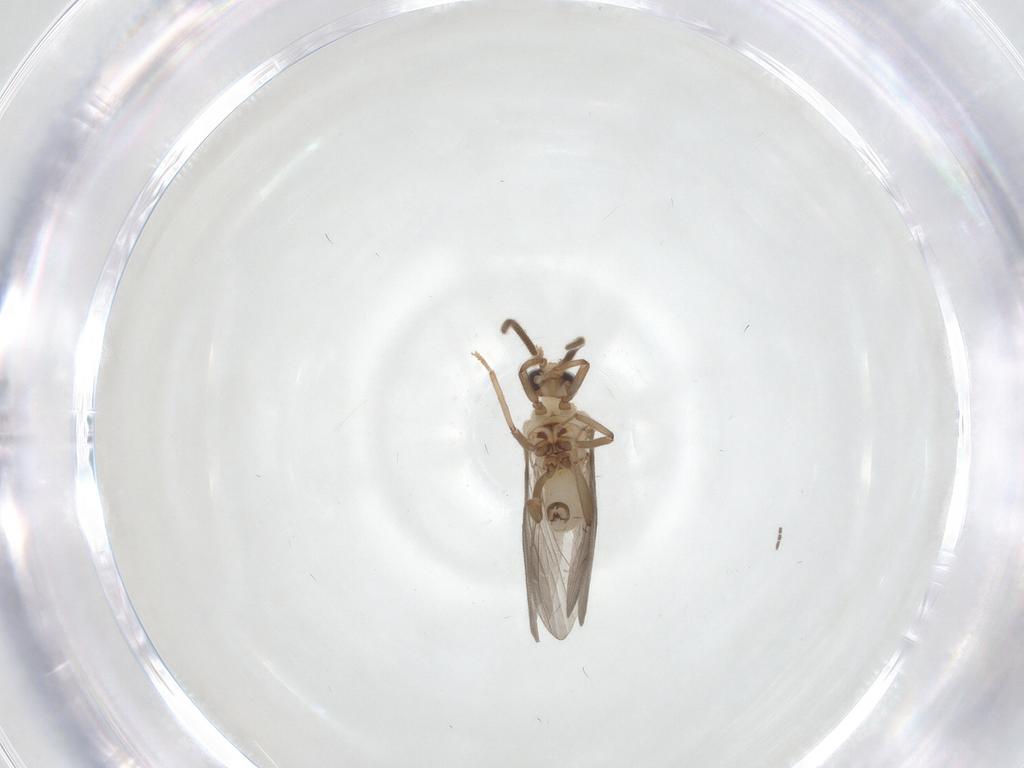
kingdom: Animalia
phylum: Arthropoda
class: Insecta
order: Neuroptera
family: Coniopterygidae
